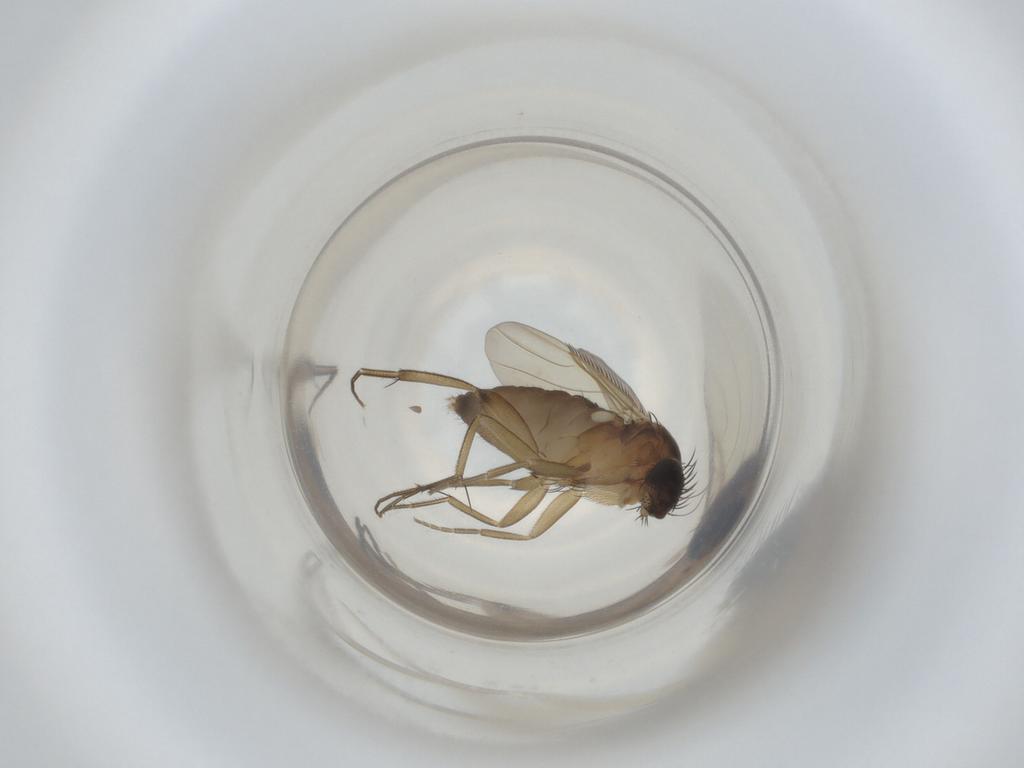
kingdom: Animalia
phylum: Arthropoda
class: Insecta
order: Diptera
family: Phoridae
